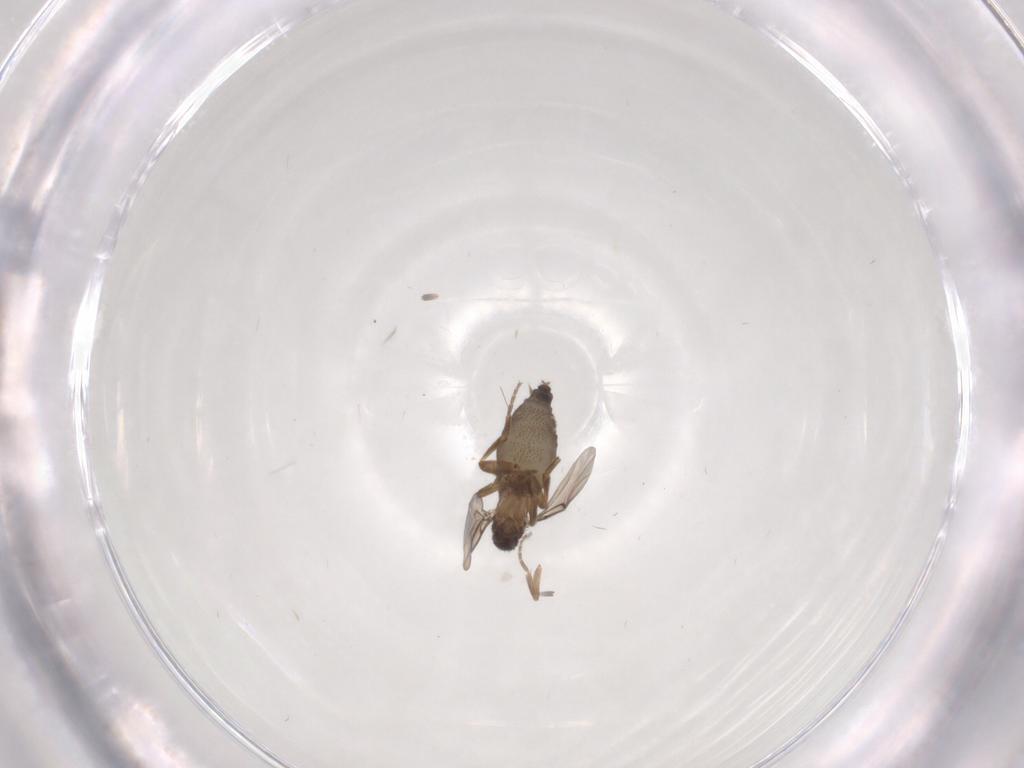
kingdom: Animalia
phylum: Arthropoda
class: Insecta
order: Diptera
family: Phoridae
